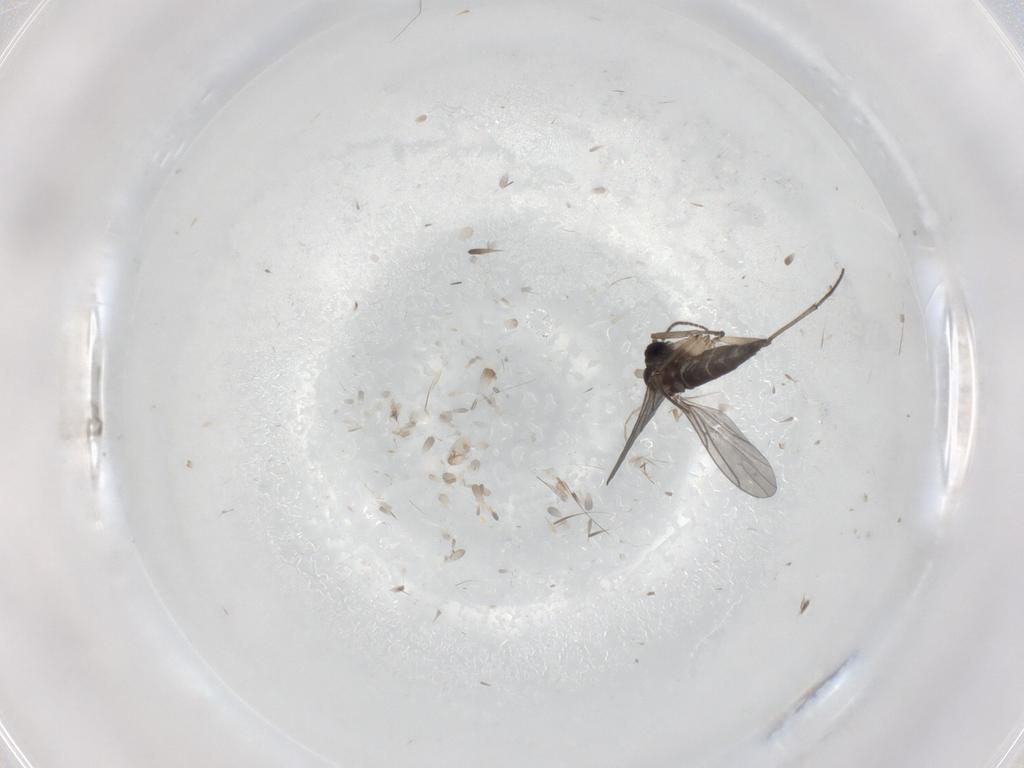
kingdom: Animalia
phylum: Arthropoda
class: Insecta
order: Diptera
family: Sciaridae
